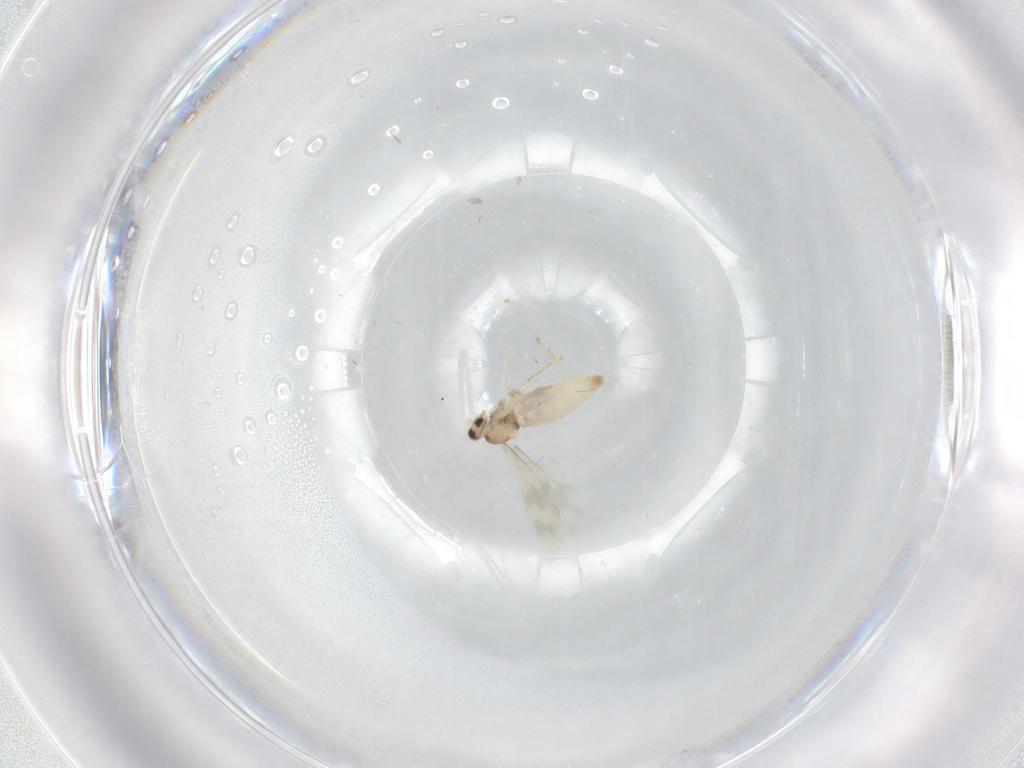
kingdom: Animalia
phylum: Arthropoda
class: Insecta
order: Diptera
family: Cecidomyiidae
